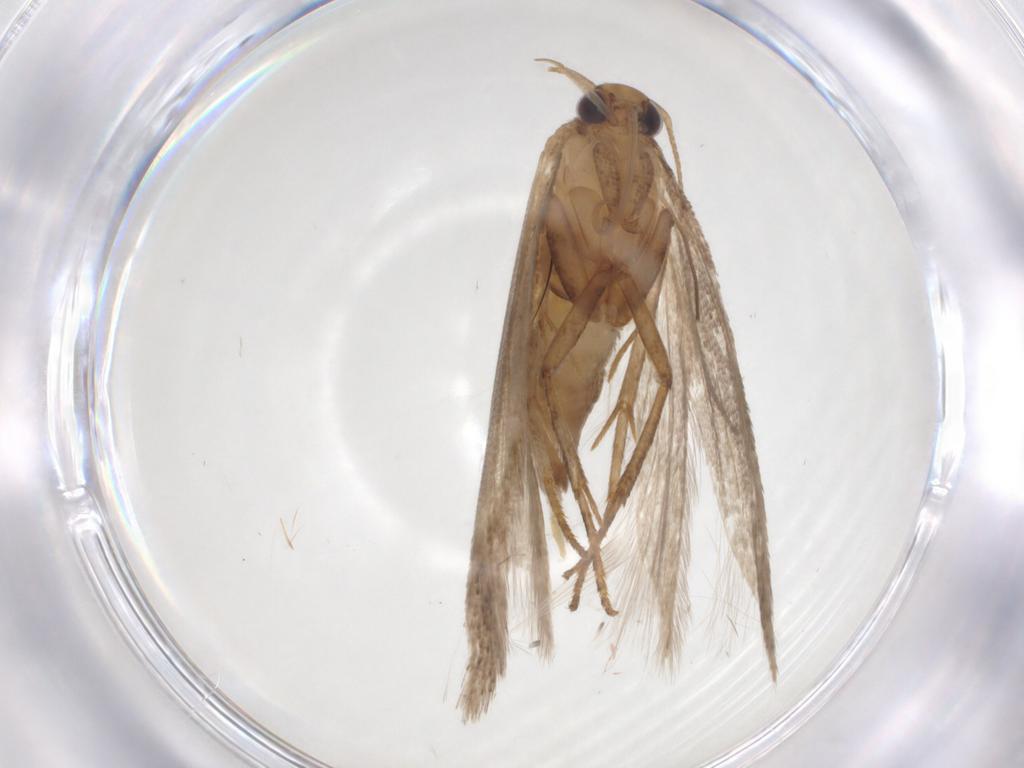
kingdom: Animalia
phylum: Arthropoda
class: Insecta
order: Lepidoptera
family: Gelechiidae
